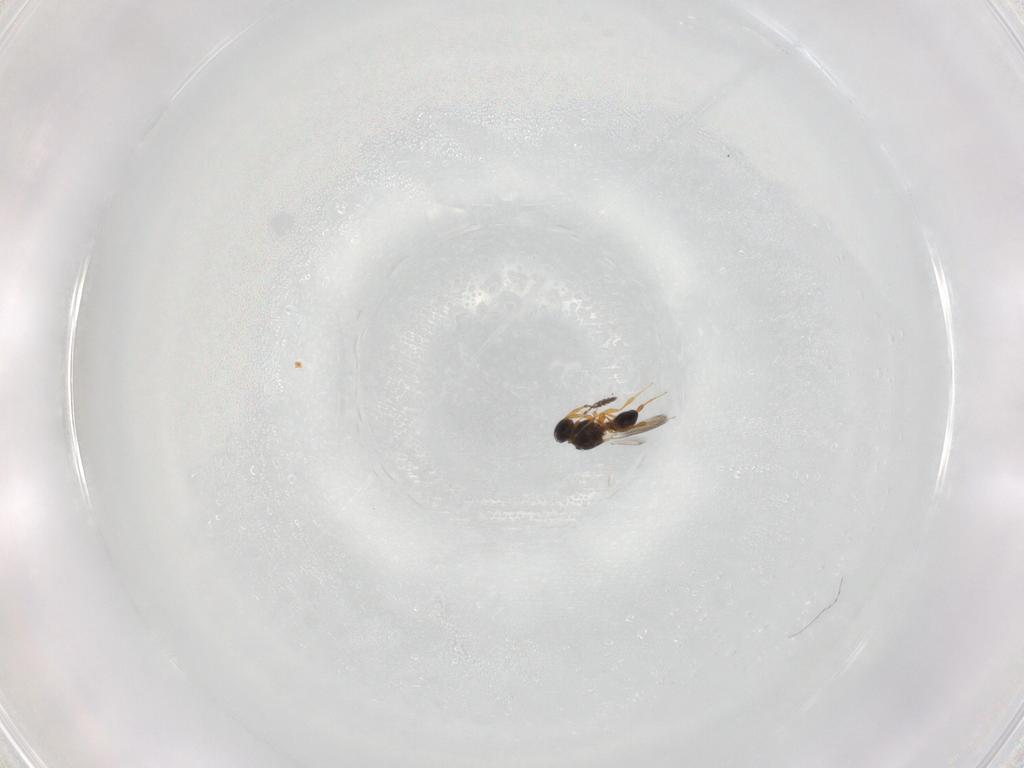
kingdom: Animalia
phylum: Arthropoda
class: Insecta
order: Hymenoptera
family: Platygastridae
